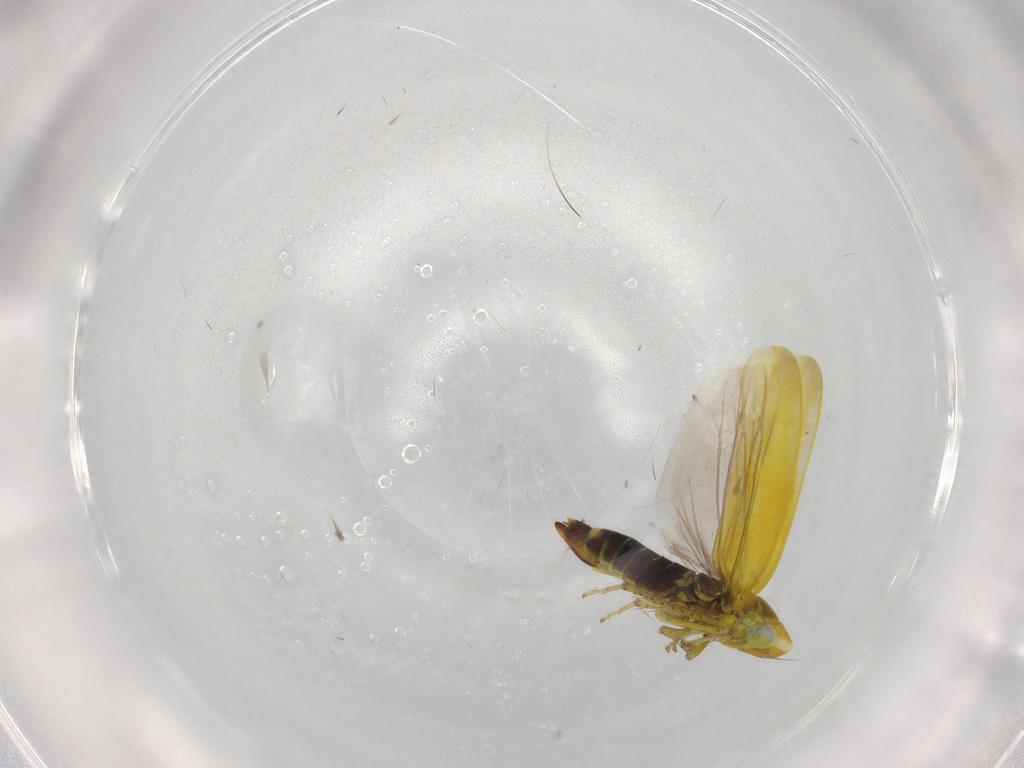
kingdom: Animalia
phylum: Arthropoda
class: Insecta
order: Hemiptera
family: Cicadellidae
